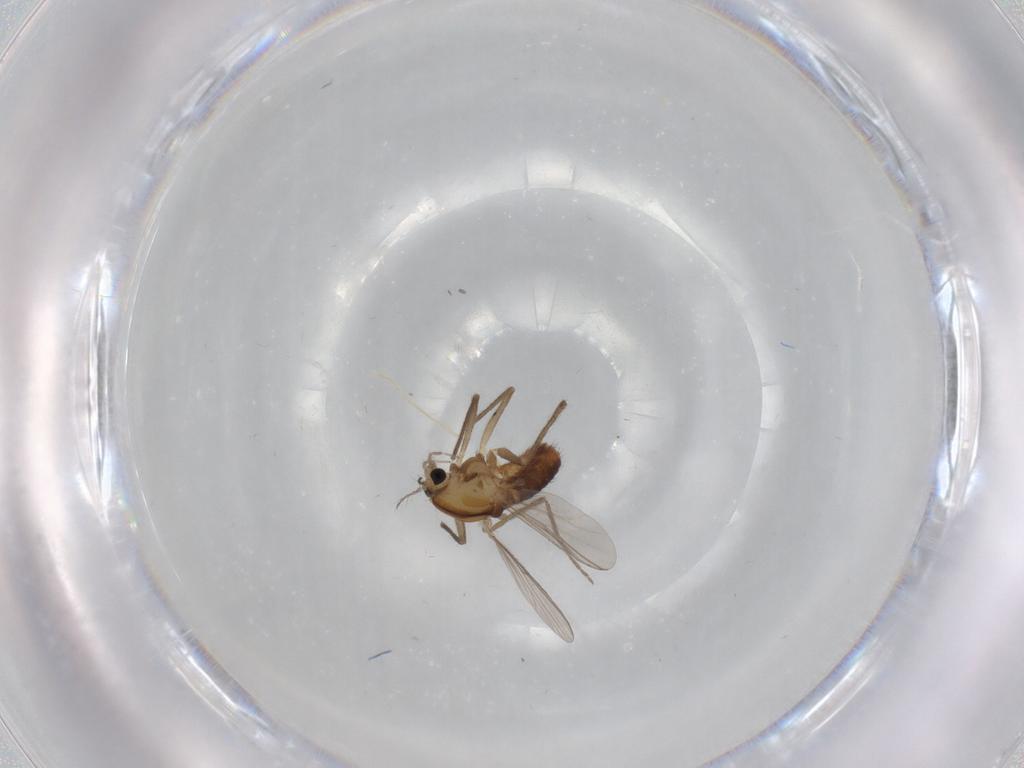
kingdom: Animalia
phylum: Arthropoda
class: Insecta
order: Diptera
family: Chironomidae
